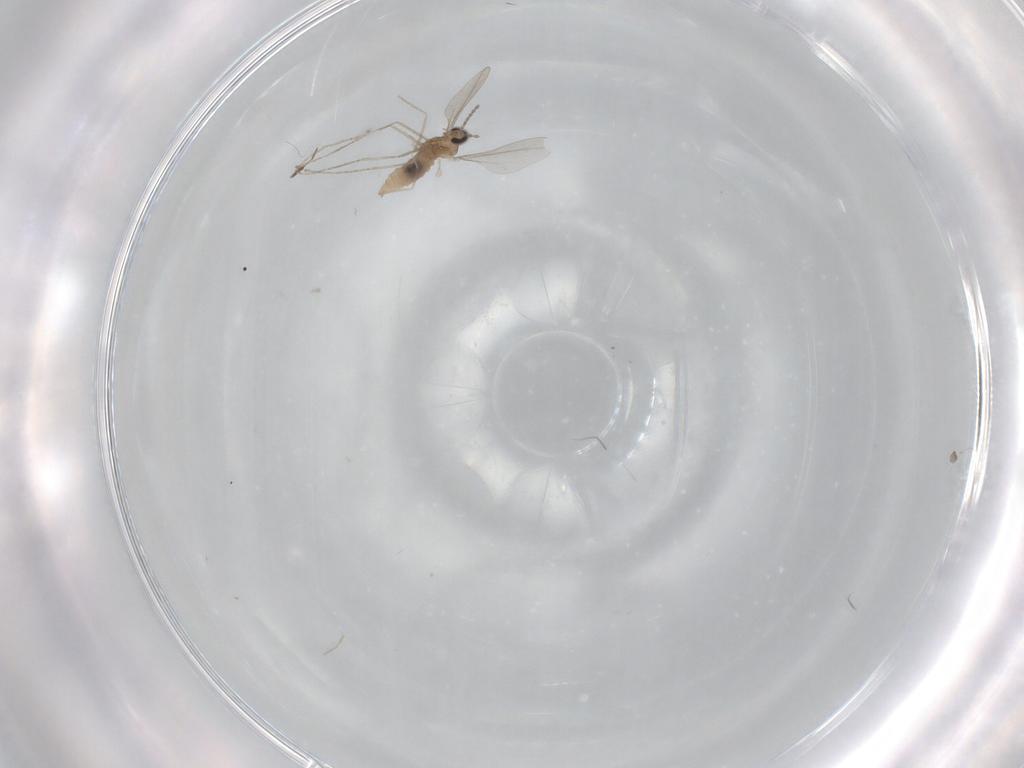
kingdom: Animalia
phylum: Arthropoda
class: Insecta
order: Diptera
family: Cecidomyiidae
